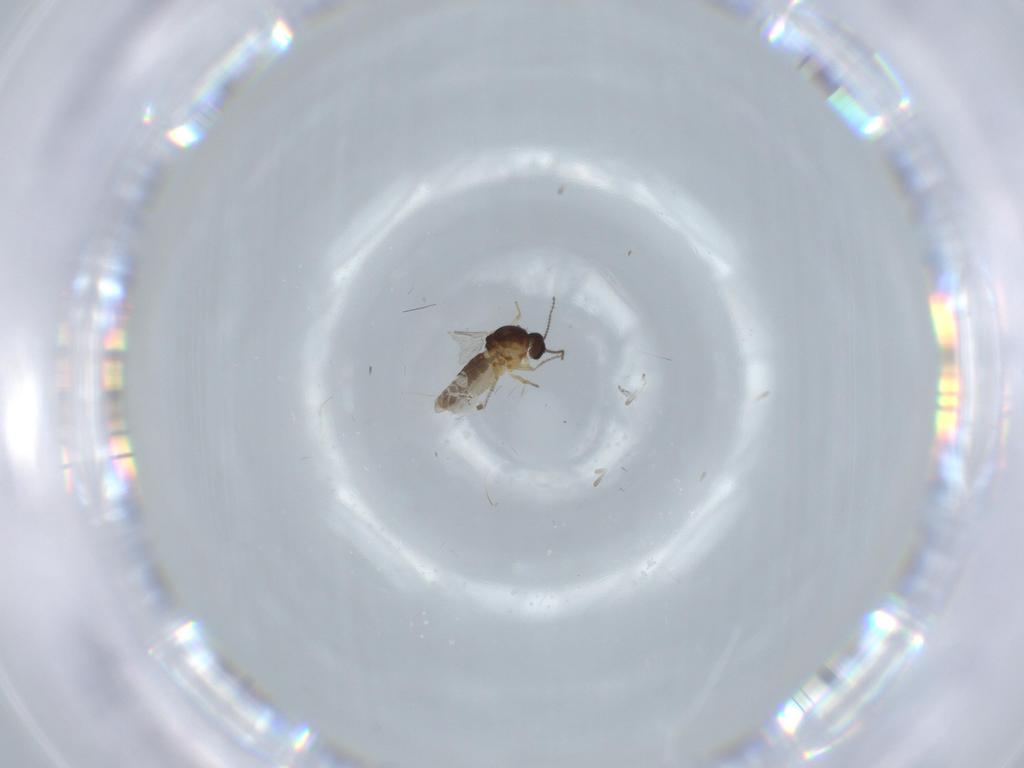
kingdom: Animalia
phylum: Arthropoda
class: Insecta
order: Diptera
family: Ceratopogonidae
